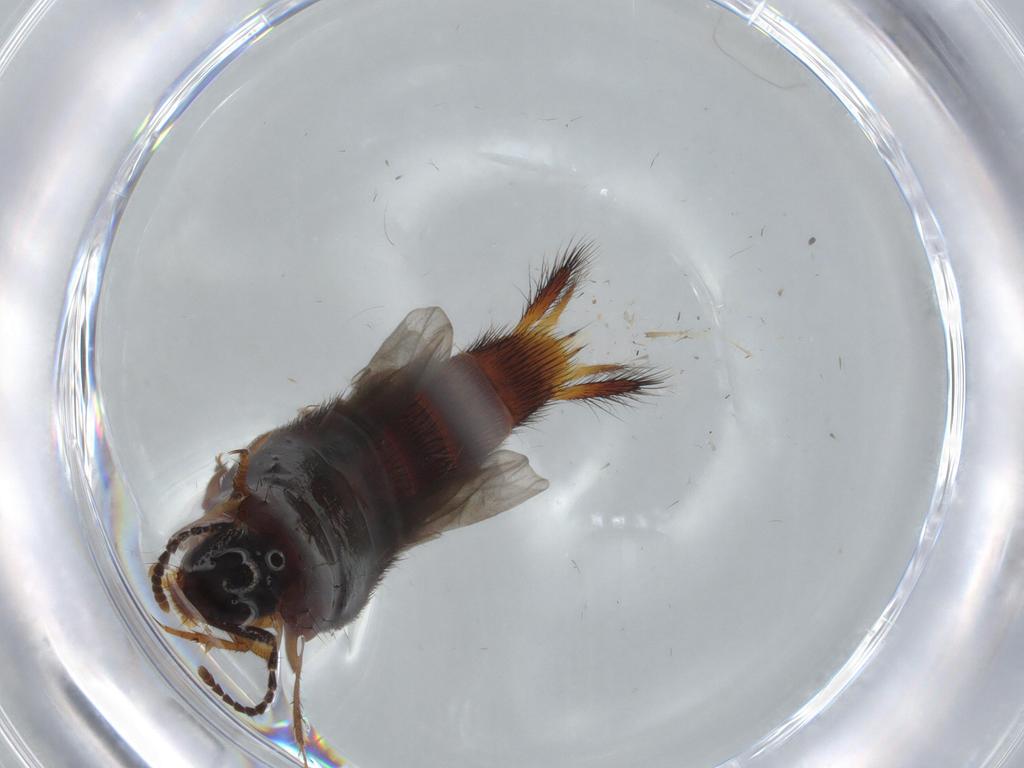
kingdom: Animalia
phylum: Arthropoda
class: Insecta
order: Coleoptera
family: Staphylinidae
